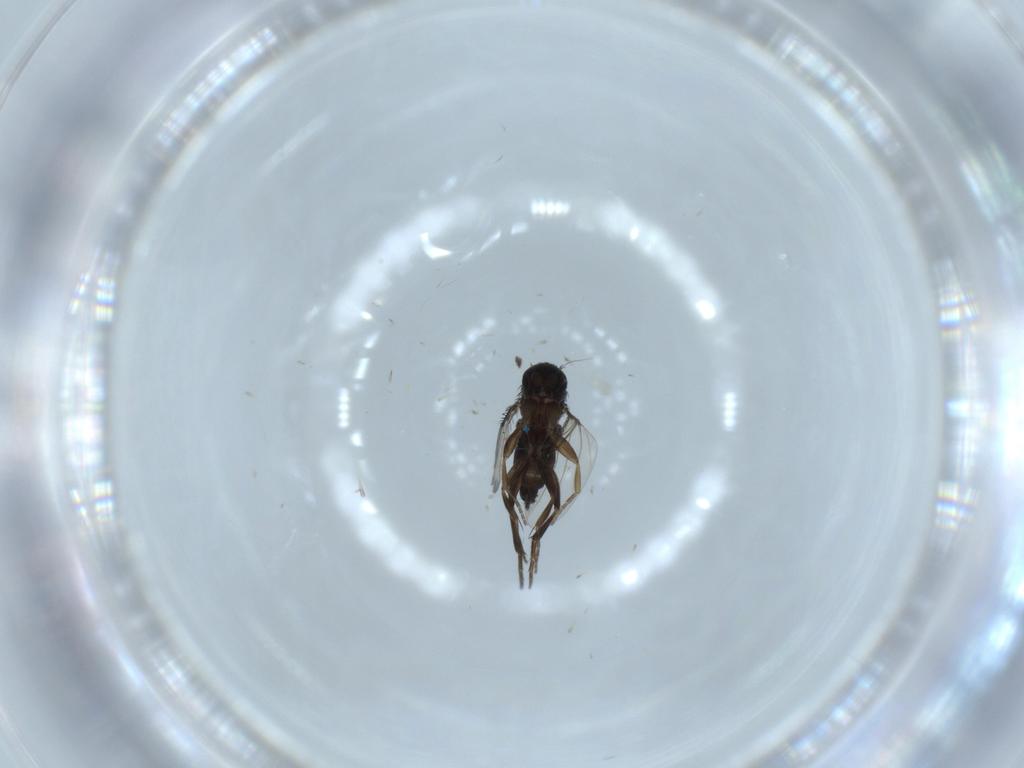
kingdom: Animalia
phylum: Arthropoda
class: Insecta
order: Diptera
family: Phoridae
